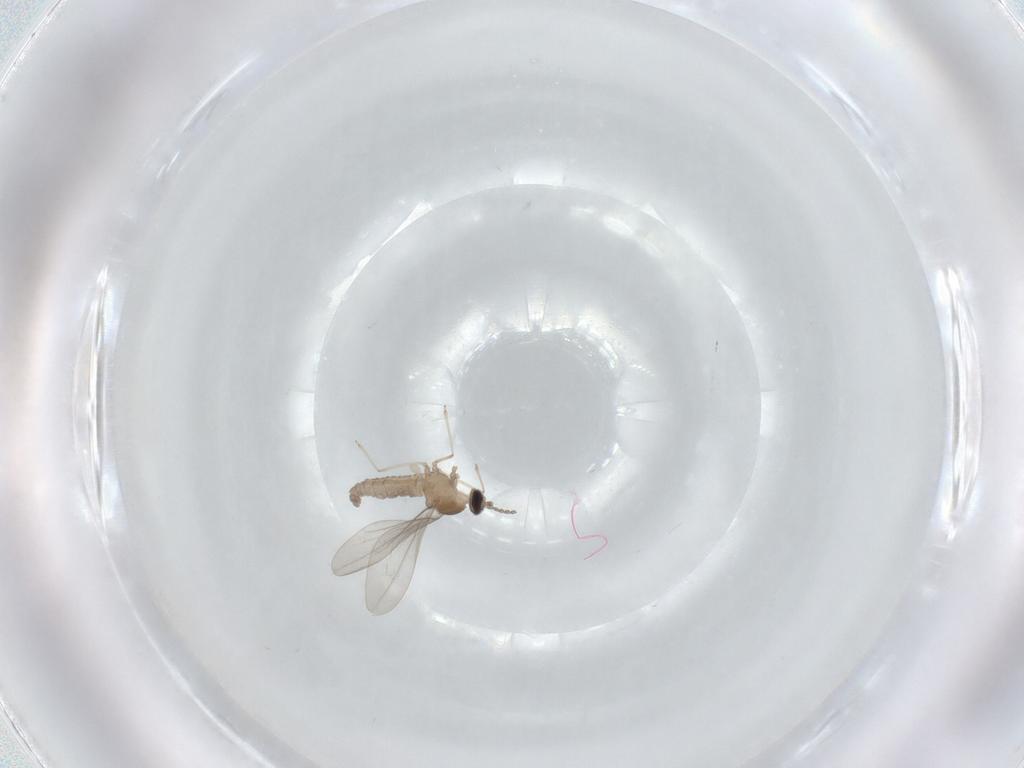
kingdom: Animalia
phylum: Arthropoda
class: Insecta
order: Diptera
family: Cecidomyiidae
